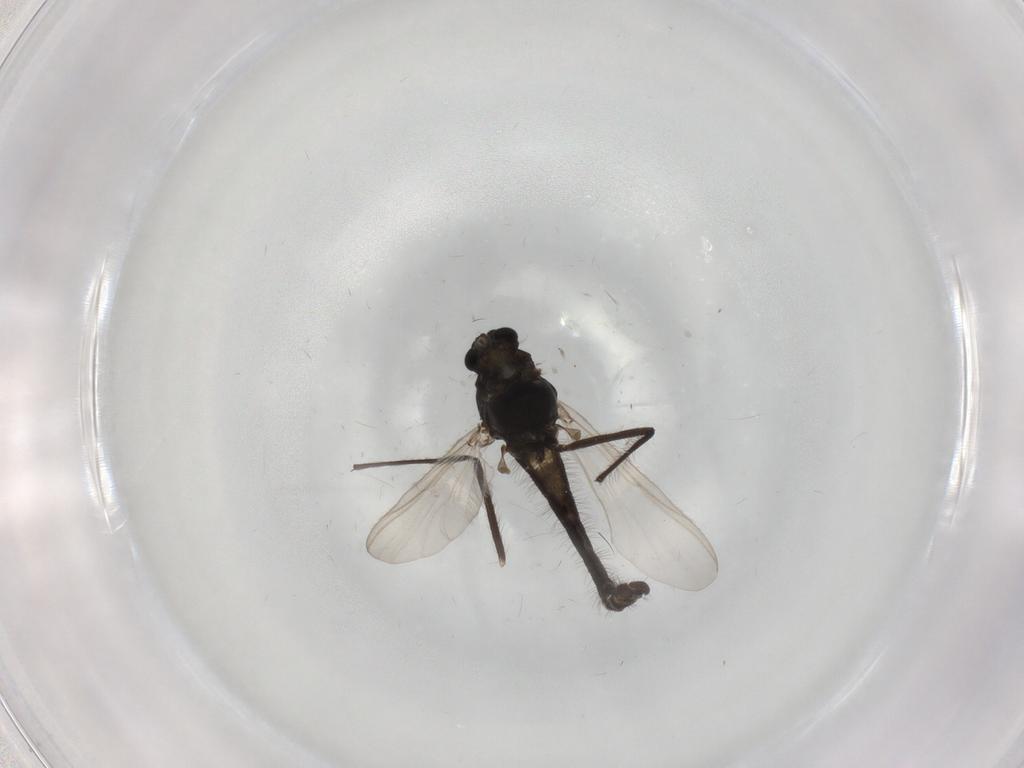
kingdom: Animalia
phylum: Arthropoda
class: Insecta
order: Diptera
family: Chironomidae
